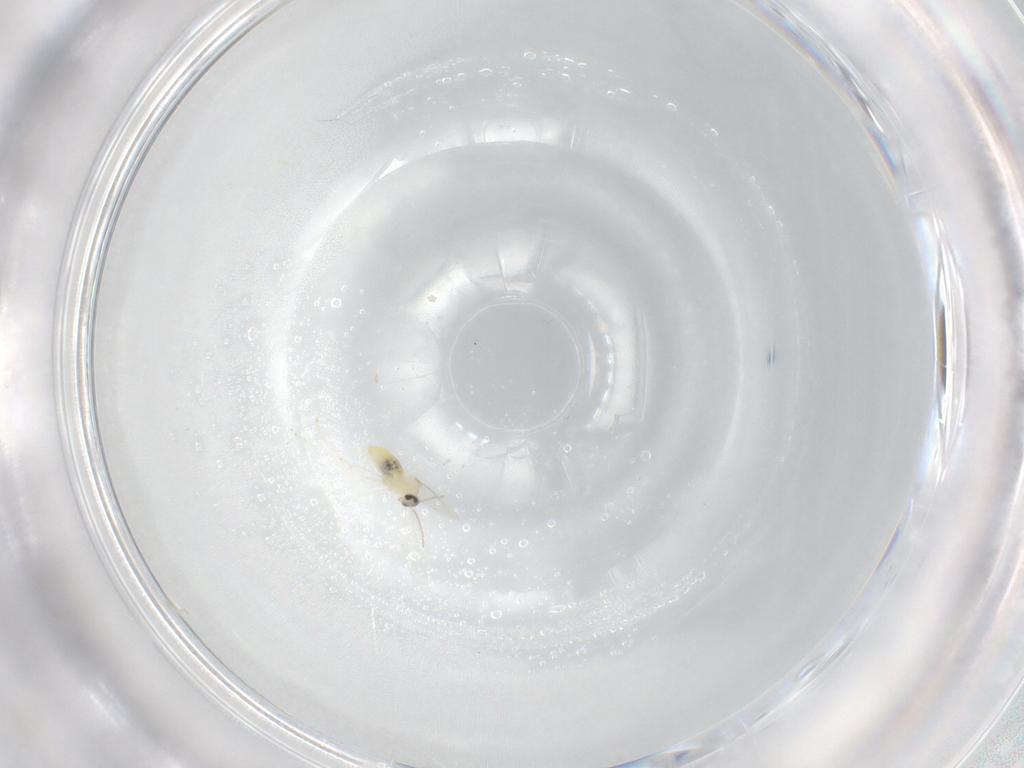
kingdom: Animalia
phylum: Arthropoda
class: Insecta
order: Diptera
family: Phoridae
